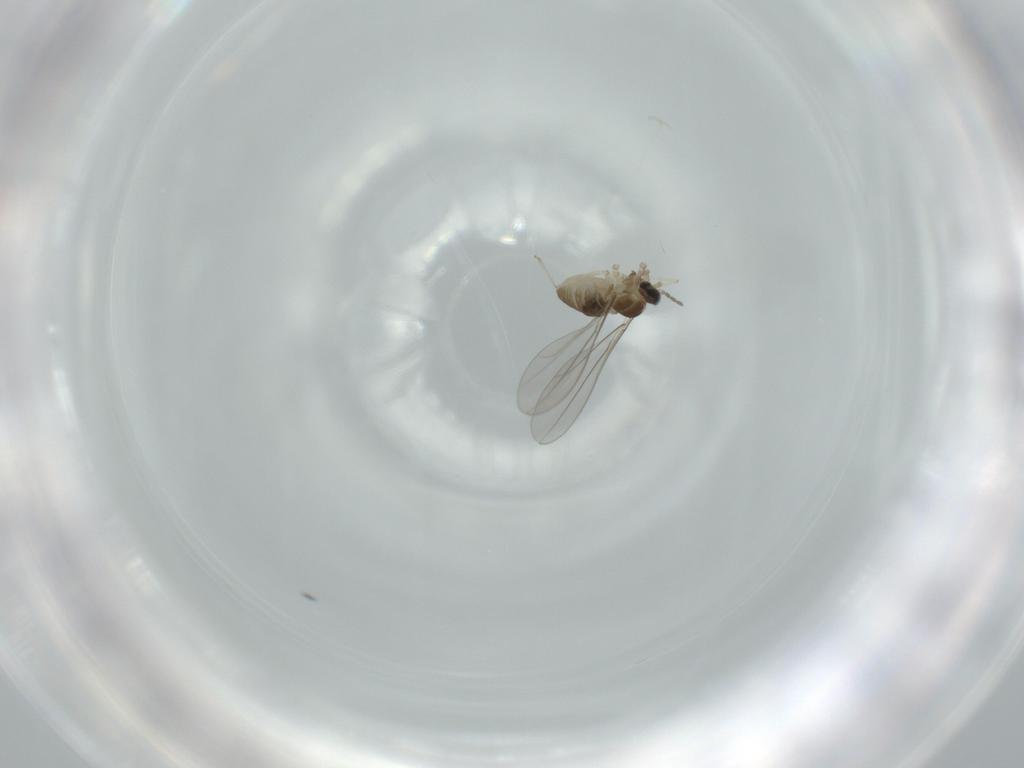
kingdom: Animalia
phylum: Arthropoda
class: Insecta
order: Diptera
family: Cecidomyiidae
